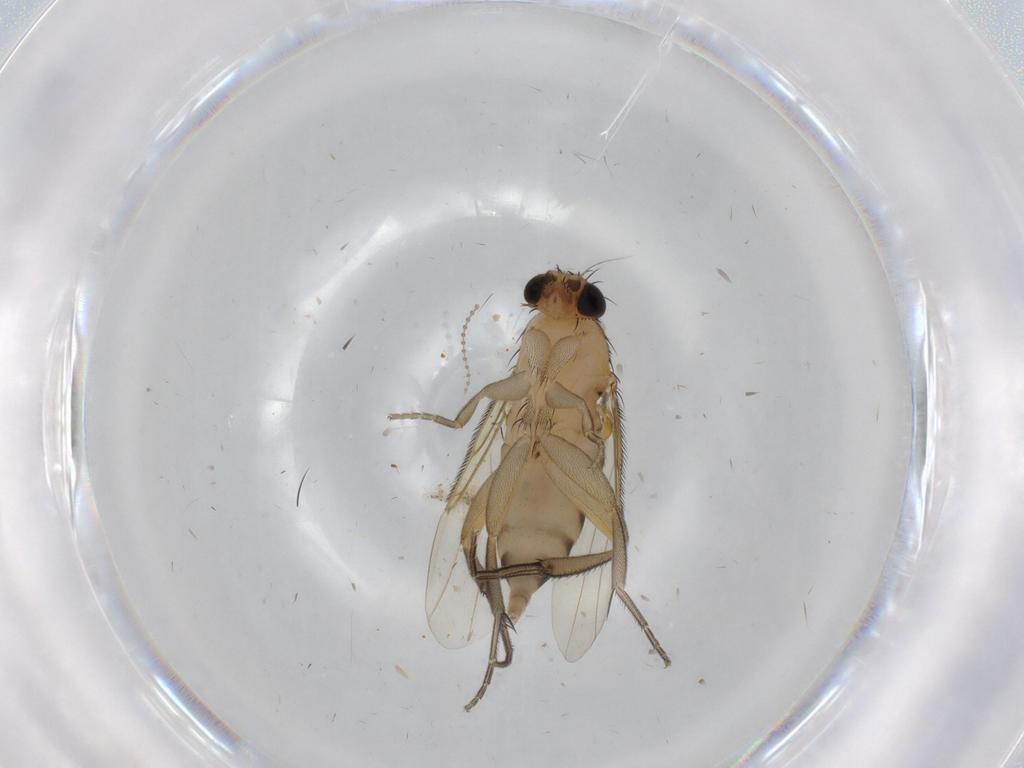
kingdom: Animalia
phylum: Arthropoda
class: Insecta
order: Diptera
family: Phoridae
